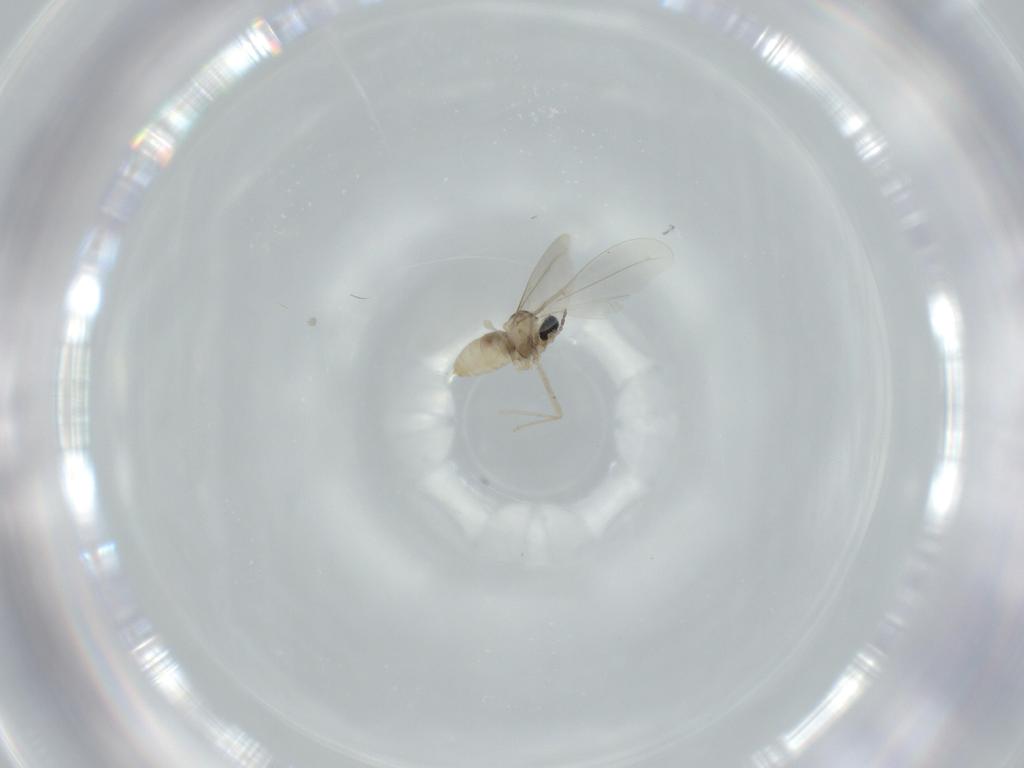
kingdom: Animalia
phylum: Arthropoda
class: Insecta
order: Diptera
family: Cecidomyiidae
